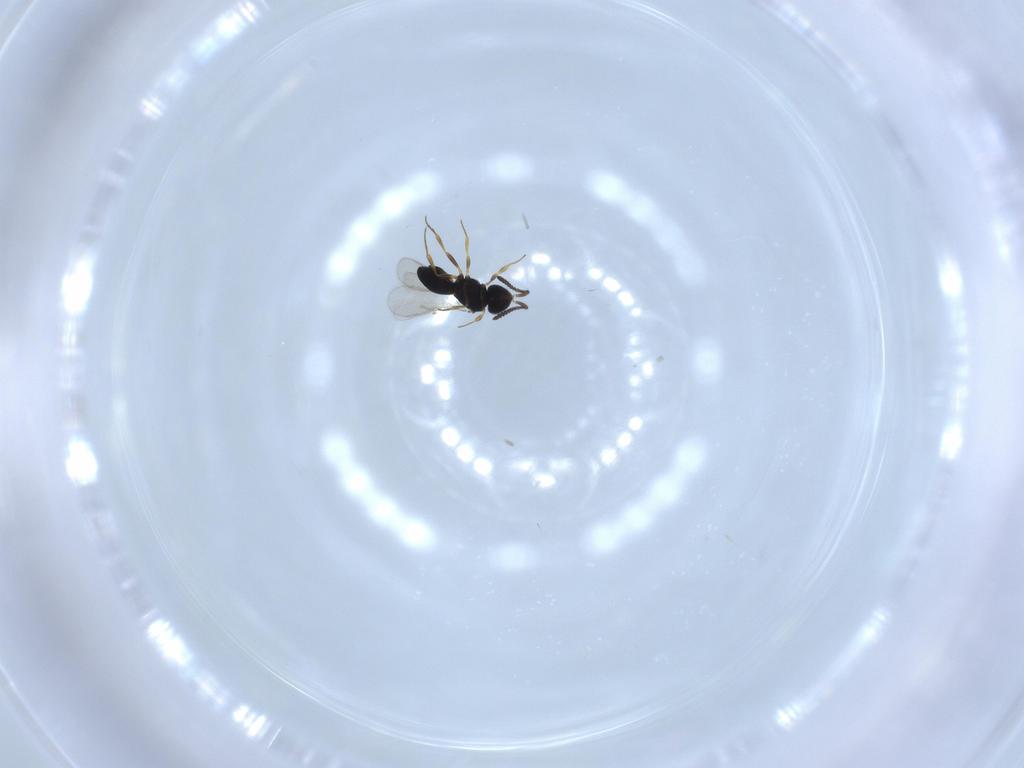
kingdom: Animalia
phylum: Arthropoda
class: Insecta
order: Hymenoptera
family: Scelionidae
